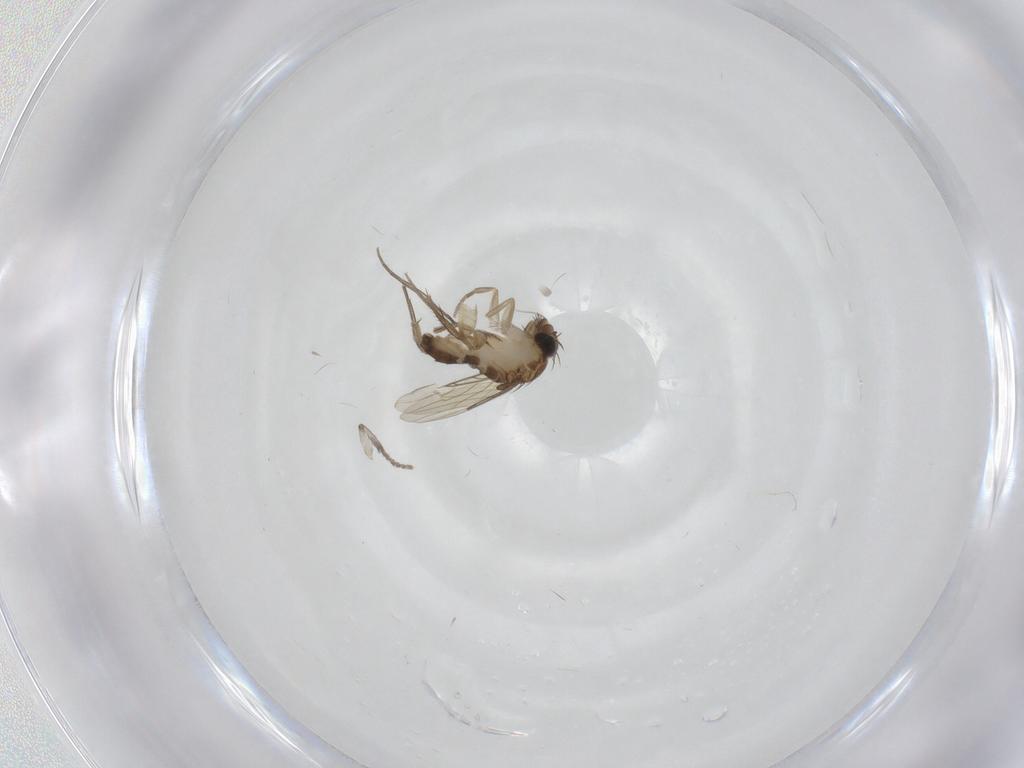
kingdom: Animalia
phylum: Arthropoda
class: Insecta
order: Diptera
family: Phoridae
